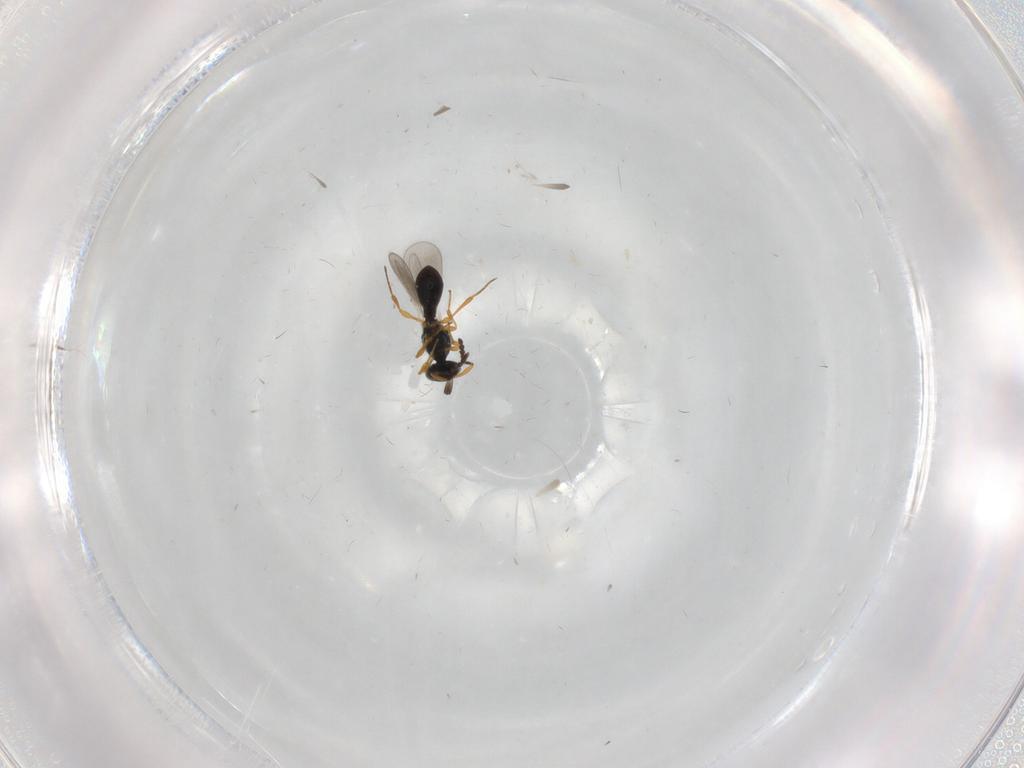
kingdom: Animalia
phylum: Arthropoda
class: Insecta
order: Hymenoptera
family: Platygastridae
